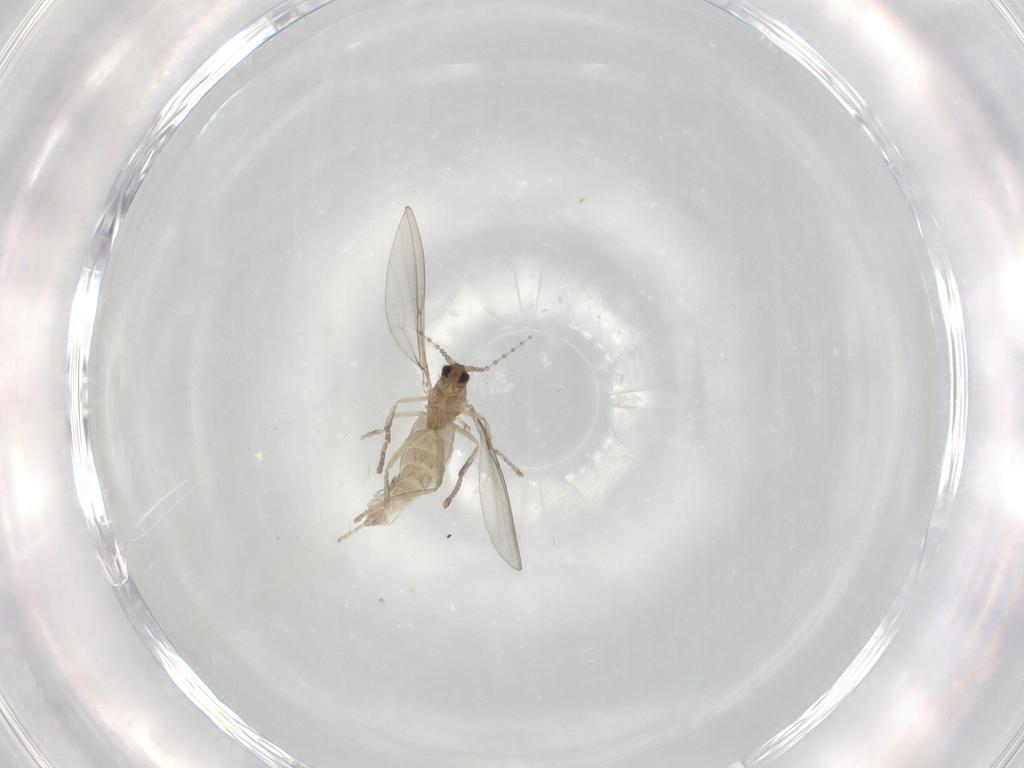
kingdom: Animalia
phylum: Arthropoda
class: Insecta
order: Diptera
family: Cecidomyiidae
